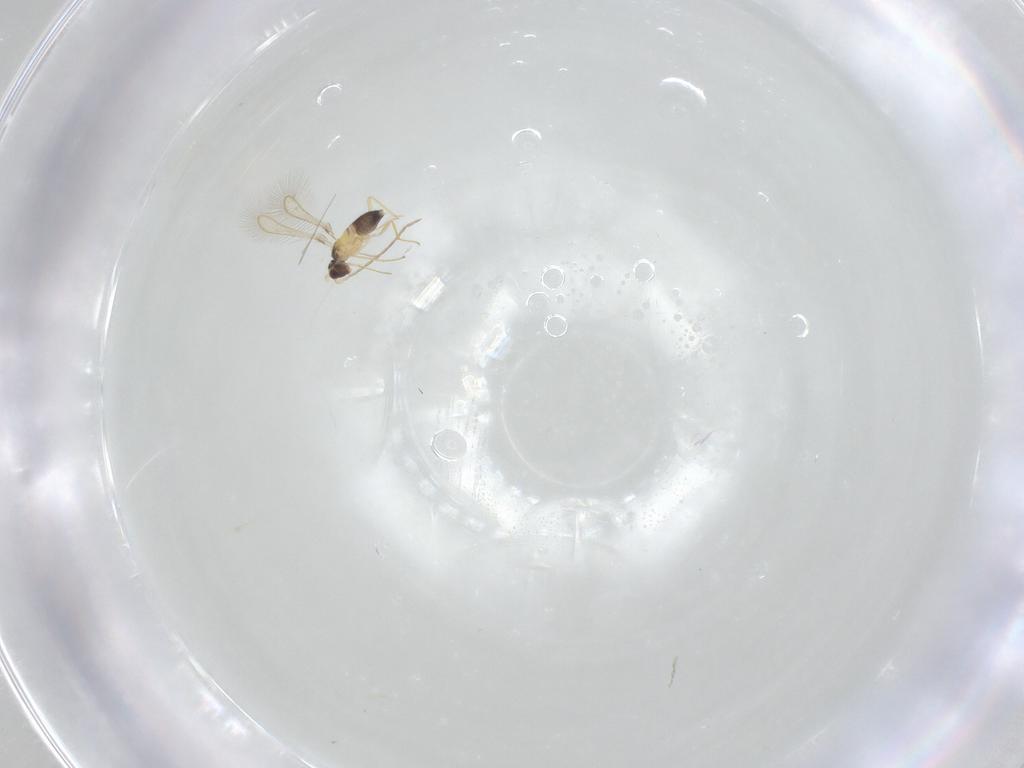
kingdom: Animalia
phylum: Arthropoda
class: Insecta
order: Hymenoptera
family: Mymaridae
